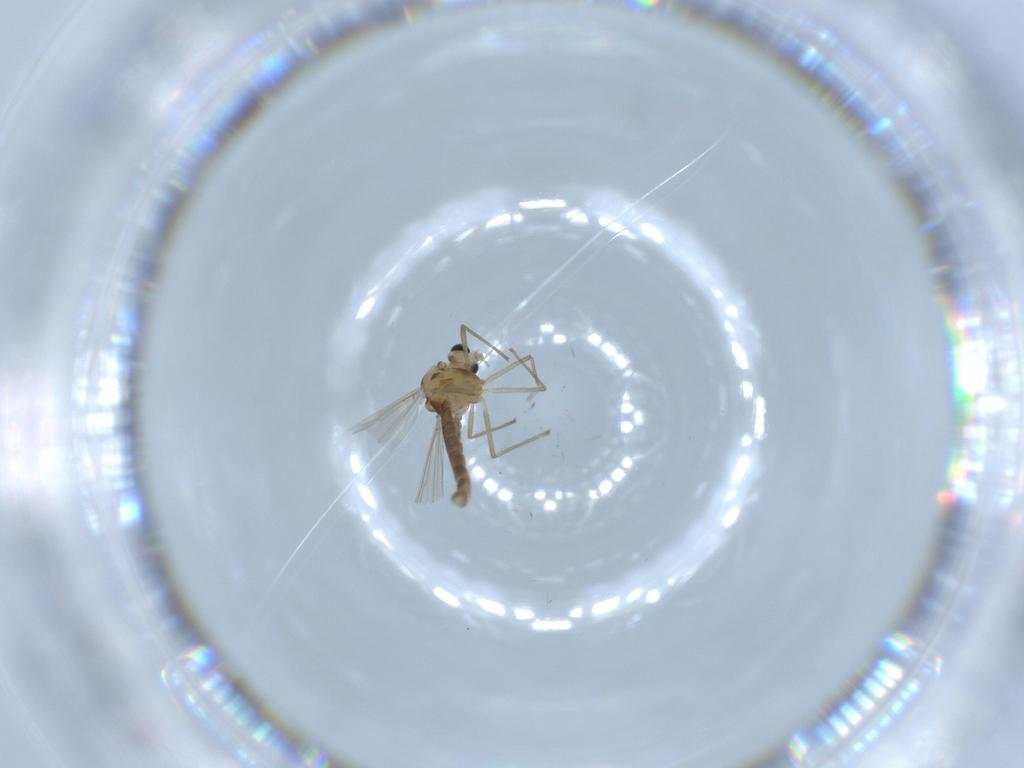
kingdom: Animalia
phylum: Arthropoda
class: Insecta
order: Diptera
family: Chironomidae
